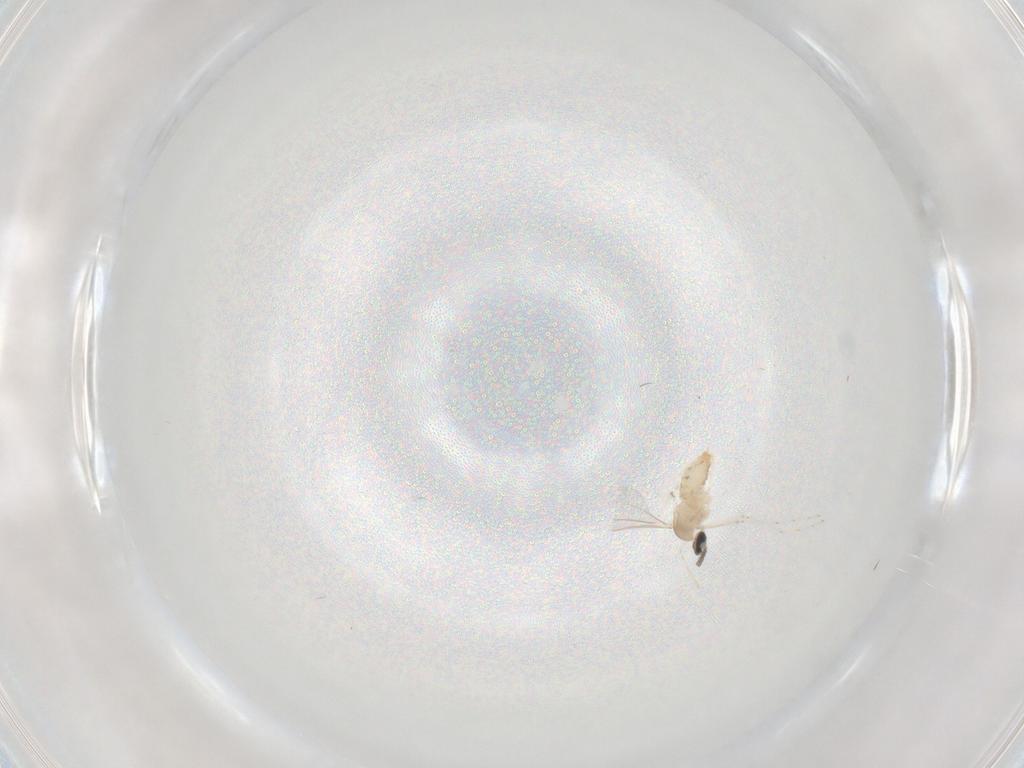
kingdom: Animalia
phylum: Arthropoda
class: Insecta
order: Diptera
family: Cecidomyiidae
